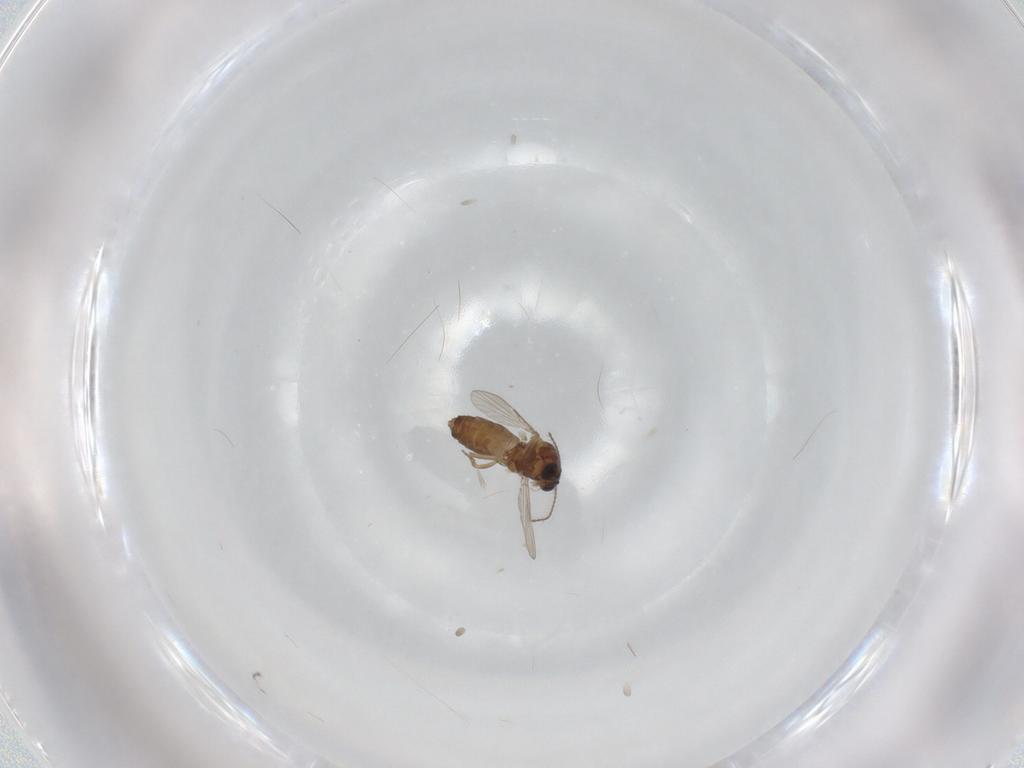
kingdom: Animalia
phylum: Arthropoda
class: Insecta
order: Diptera
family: Ceratopogonidae
